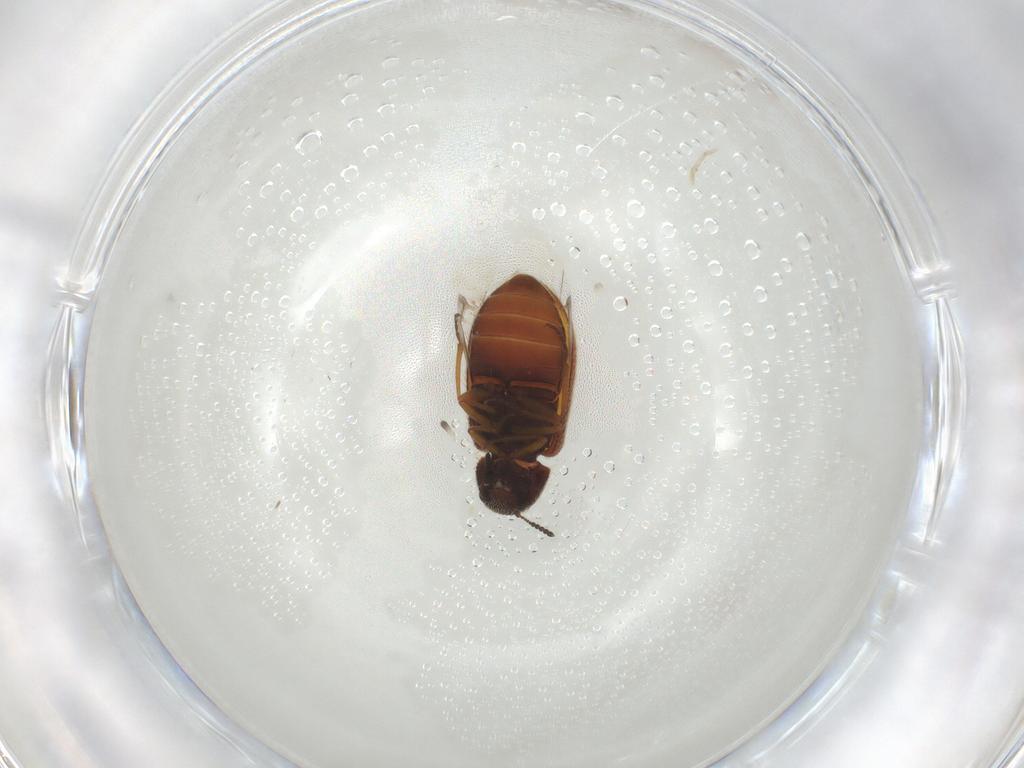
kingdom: Animalia
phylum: Arthropoda
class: Insecta
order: Coleoptera
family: Rhadalidae
